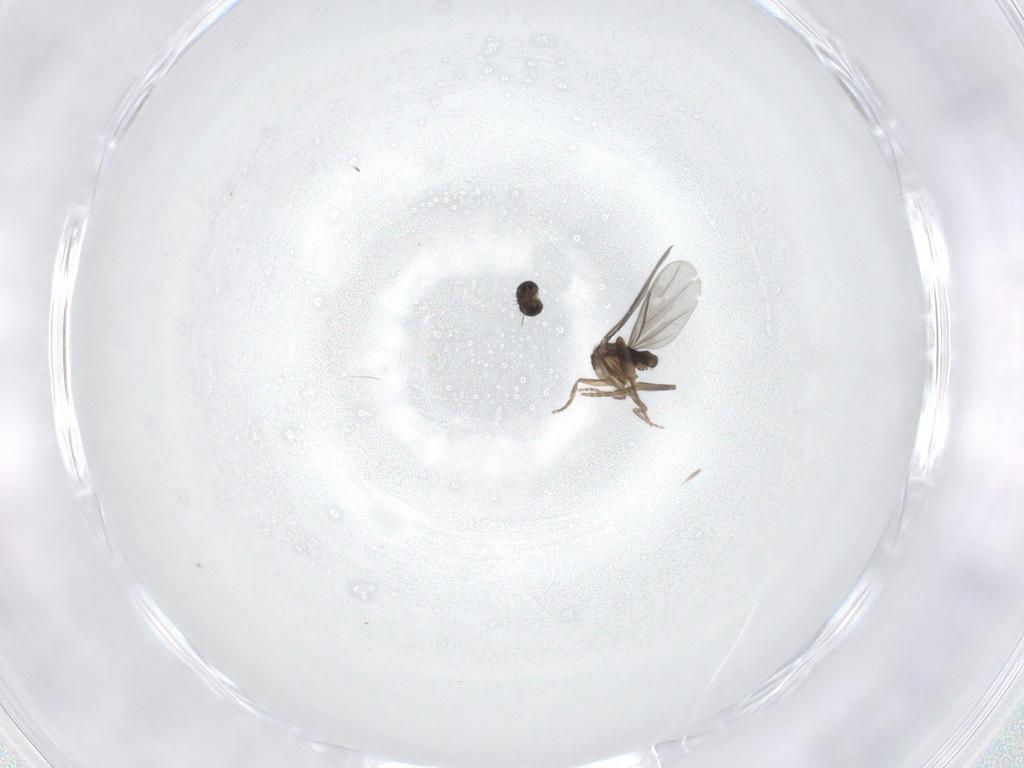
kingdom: Animalia
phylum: Arthropoda
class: Insecta
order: Diptera
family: Phoridae
